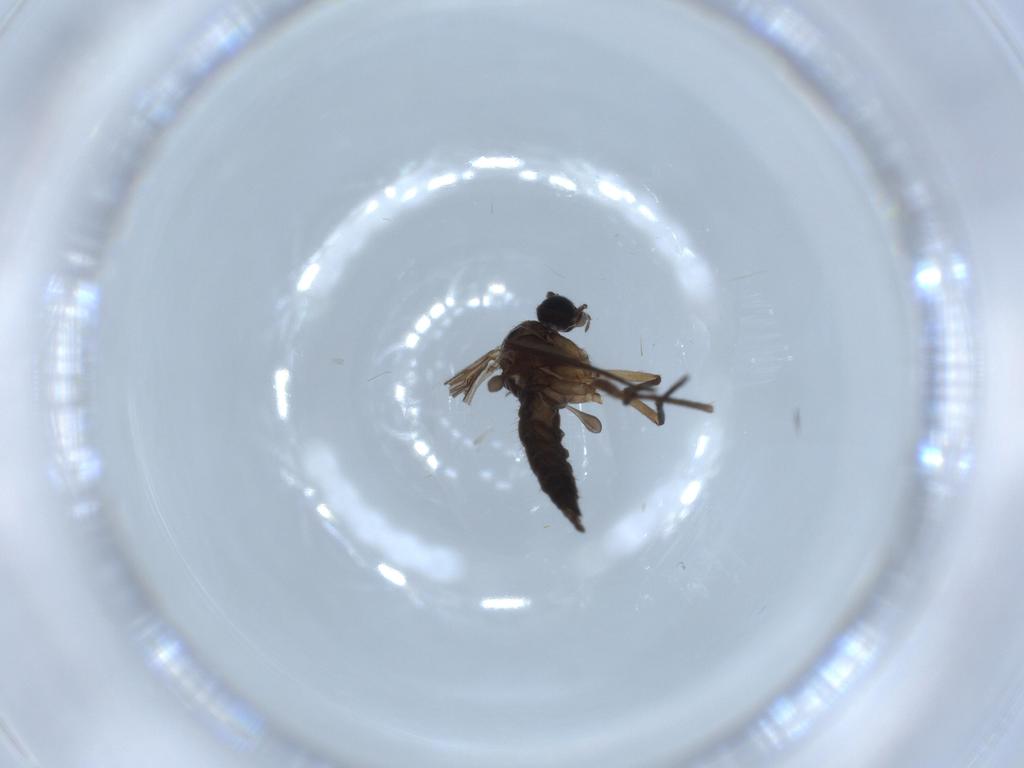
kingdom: Animalia
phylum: Arthropoda
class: Insecta
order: Diptera
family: Sciaridae
